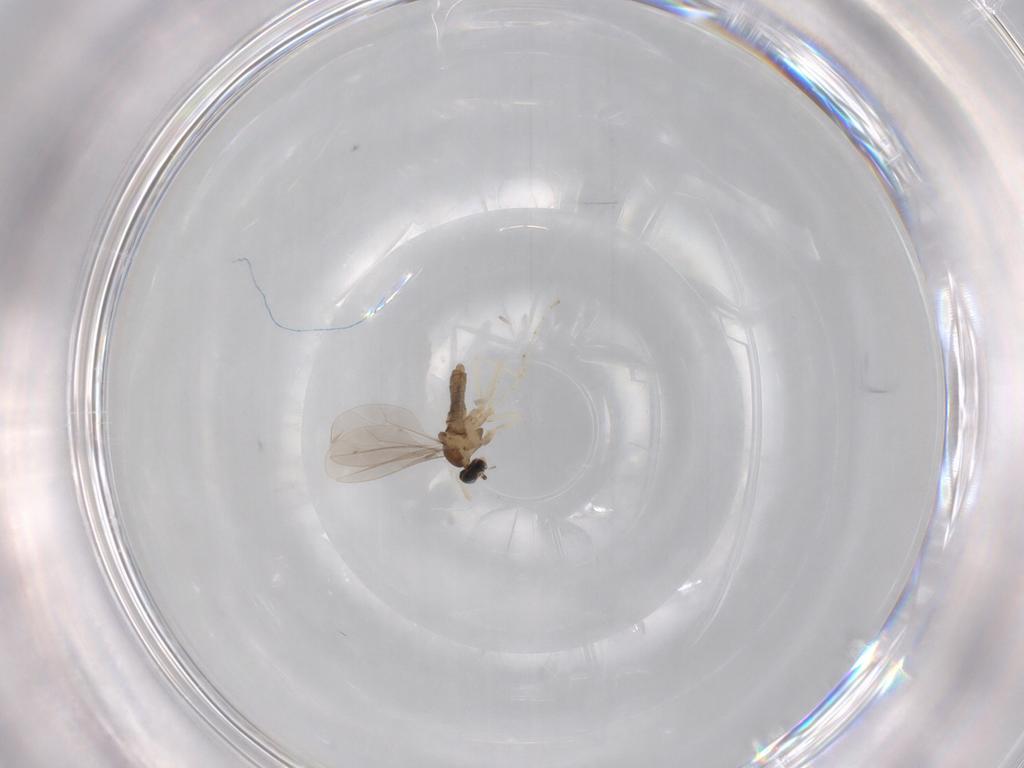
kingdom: Animalia
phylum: Arthropoda
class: Insecta
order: Diptera
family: Cecidomyiidae
